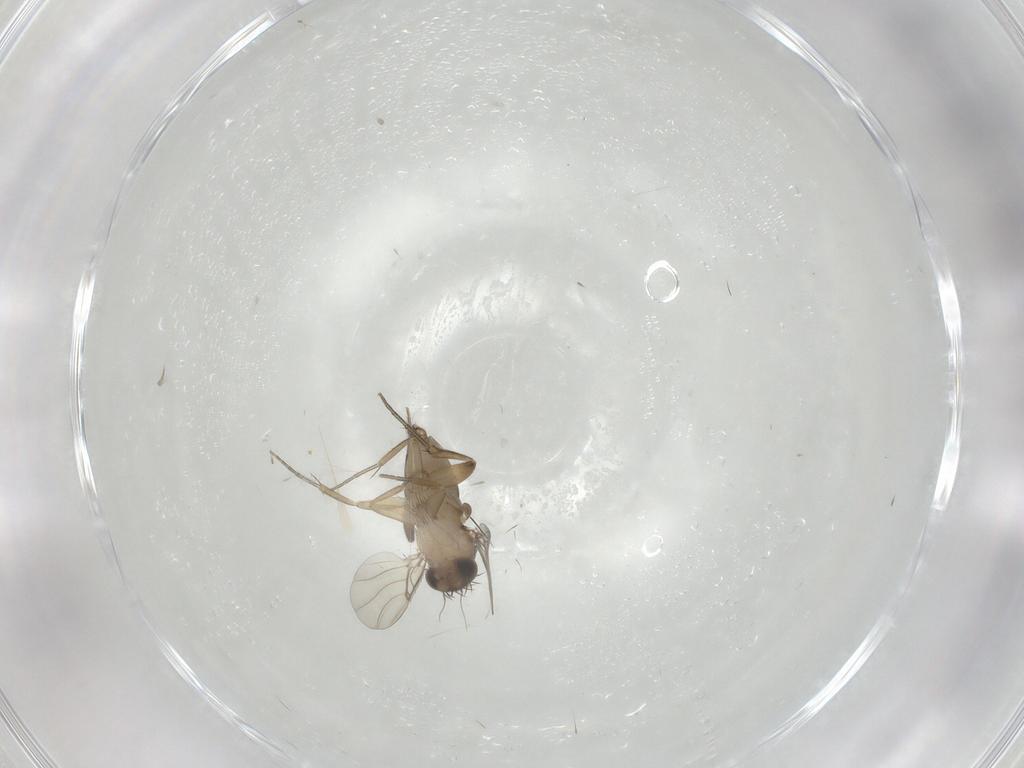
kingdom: Animalia
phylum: Arthropoda
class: Insecta
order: Diptera
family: Phoridae
